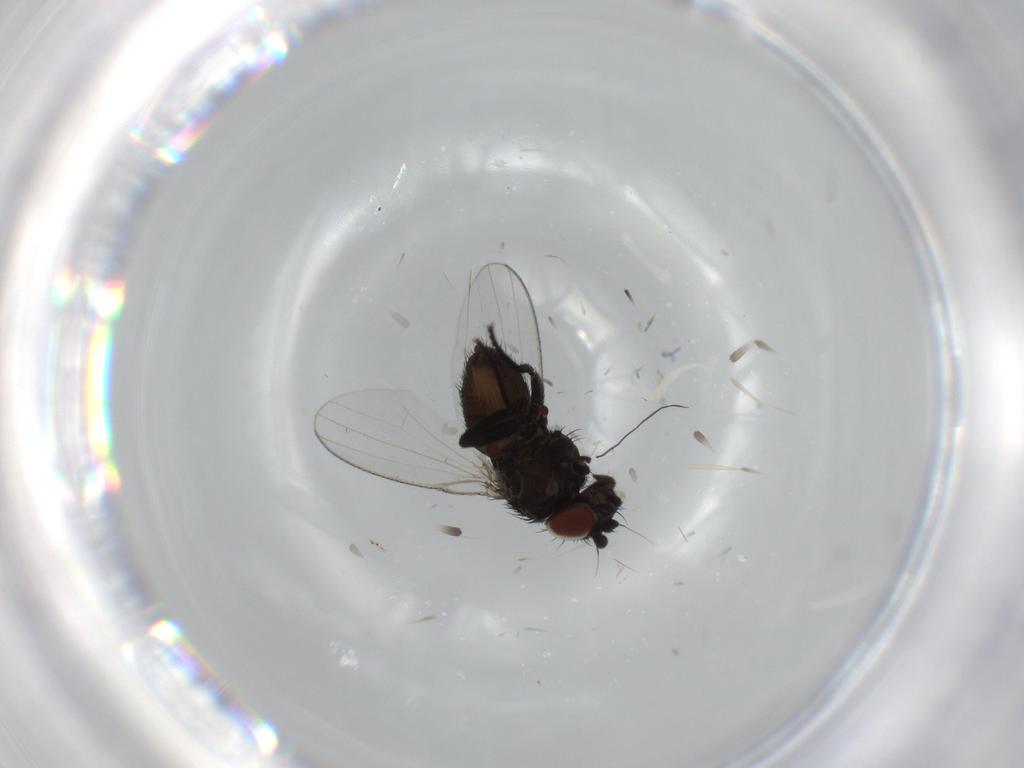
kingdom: Animalia
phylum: Arthropoda
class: Insecta
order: Diptera
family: Milichiidae
